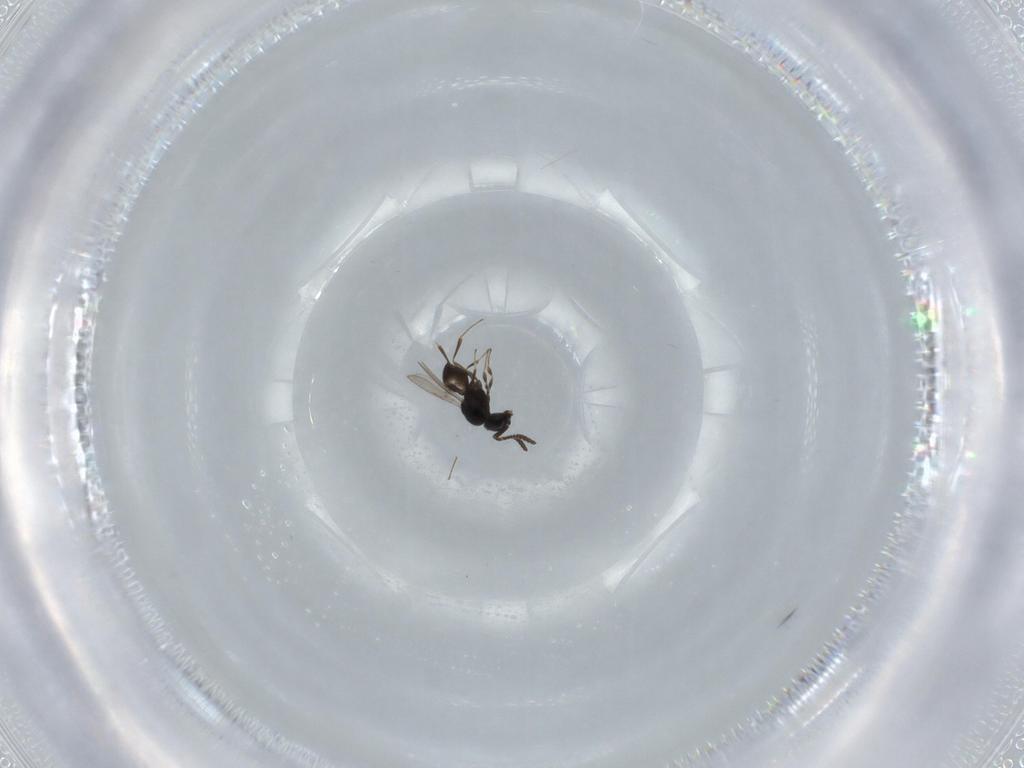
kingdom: Animalia
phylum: Arthropoda
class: Insecta
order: Hymenoptera
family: Scelionidae
